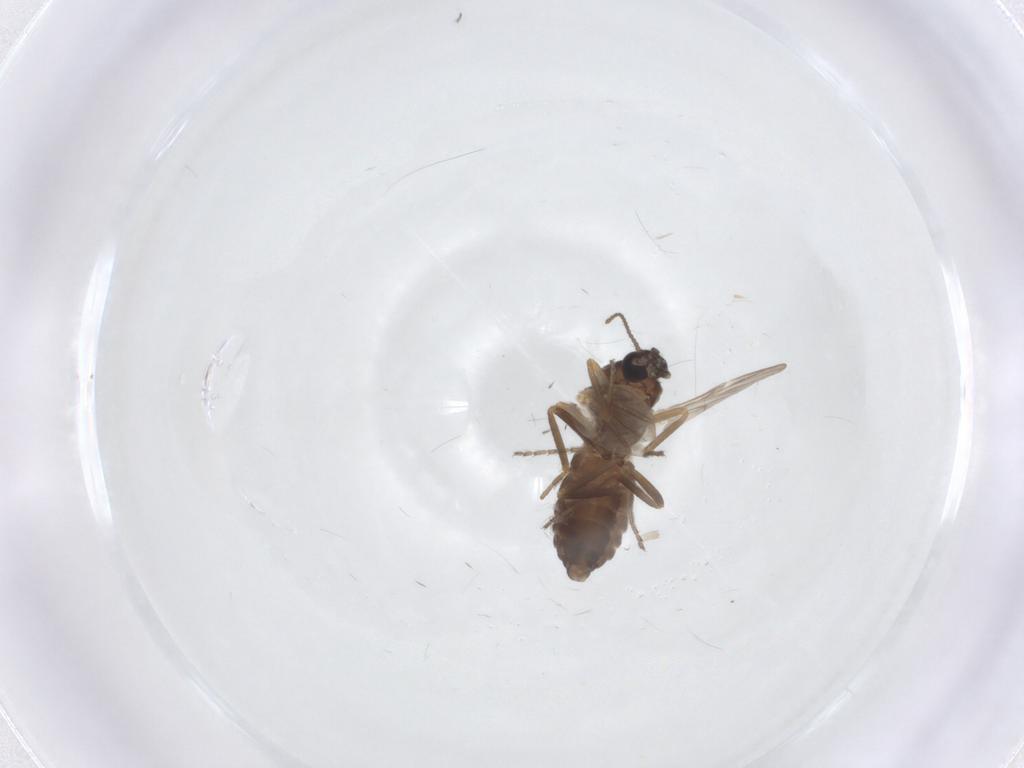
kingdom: Animalia
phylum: Arthropoda
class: Insecta
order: Diptera
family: Ceratopogonidae
